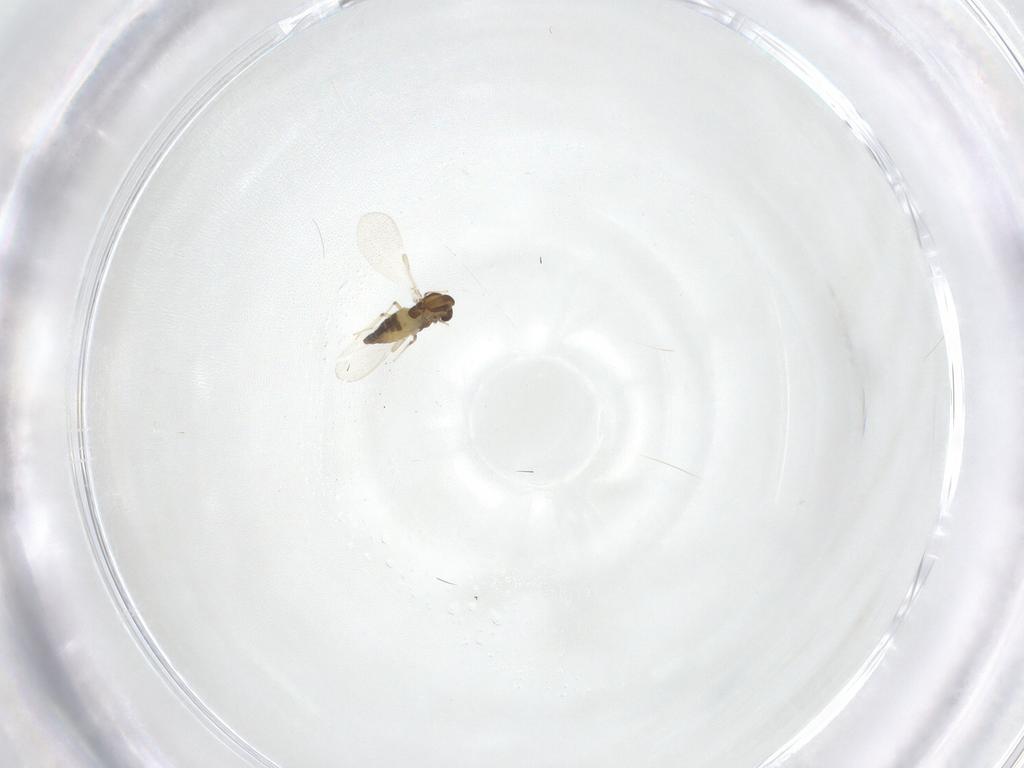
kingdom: Animalia
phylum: Arthropoda
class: Insecta
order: Diptera
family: Chironomidae
